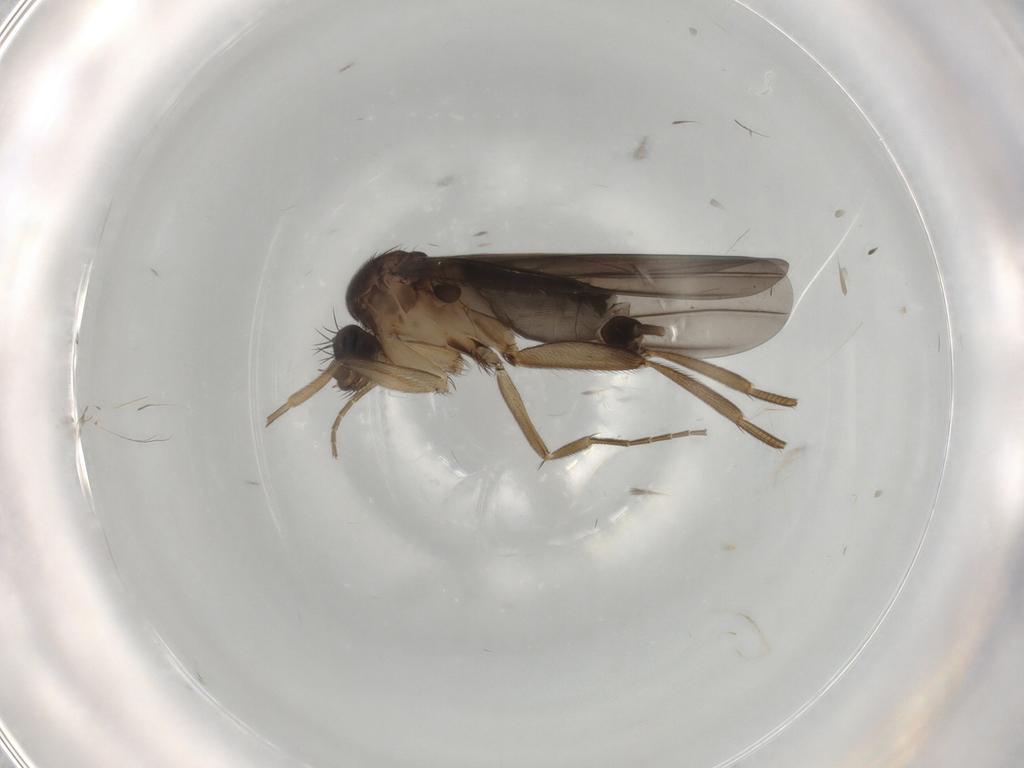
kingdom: Animalia
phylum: Arthropoda
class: Insecta
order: Diptera
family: Phoridae
